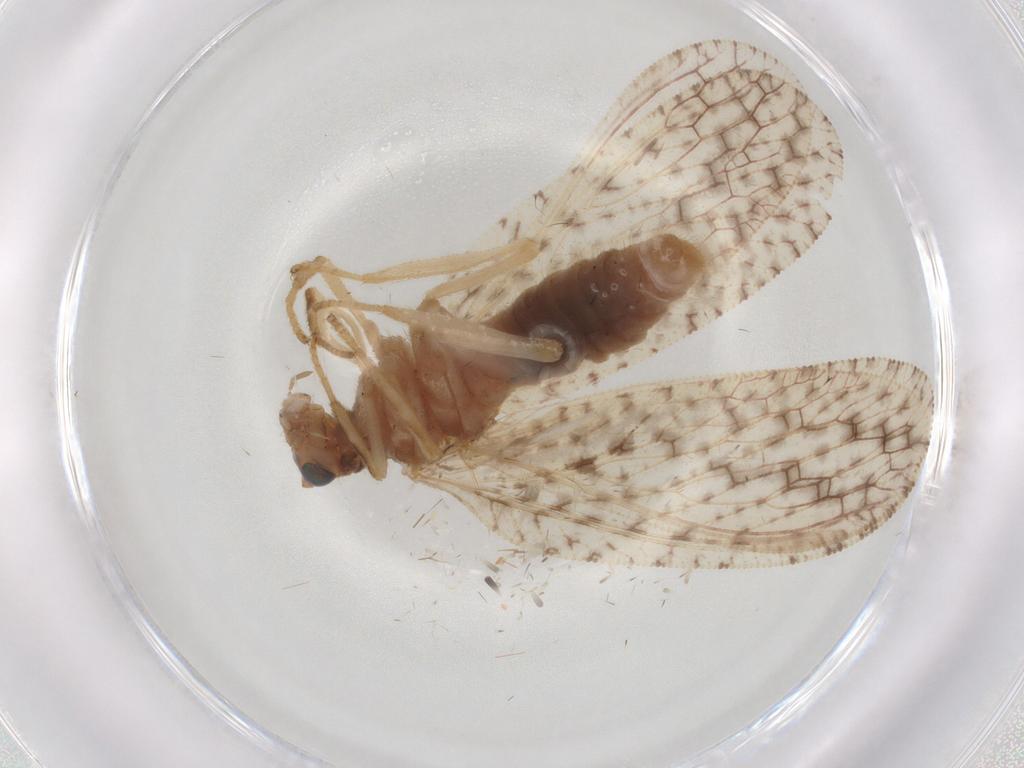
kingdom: Animalia
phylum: Arthropoda
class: Insecta
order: Neuroptera
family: Hemerobiidae
